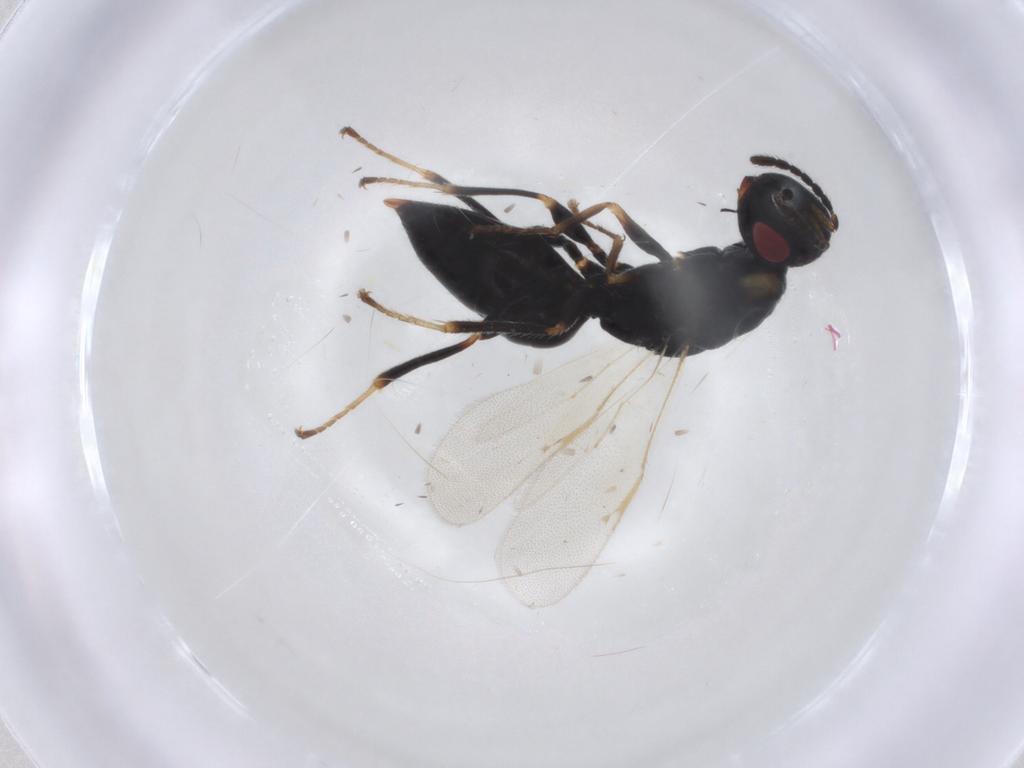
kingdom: Animalia
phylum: Arthropoda
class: Insecta
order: Hymenoptera
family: Eurytomidae
